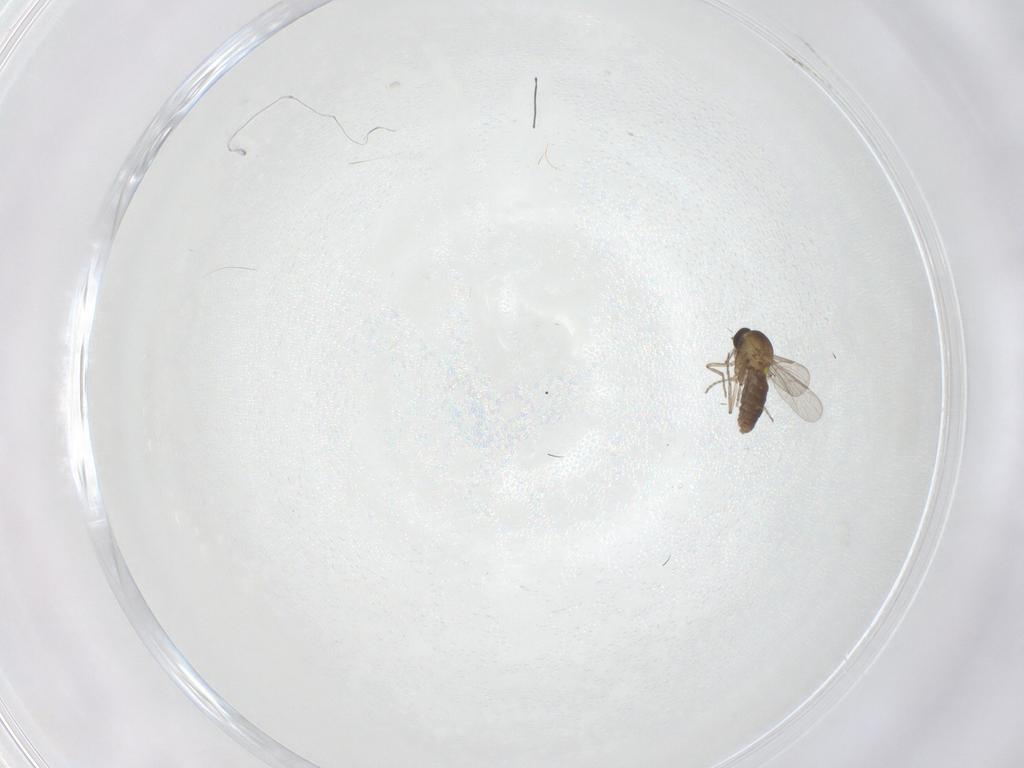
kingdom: Animalia
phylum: Arthropoda
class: Insecta
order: Diptera
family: Ceratopogonidae
